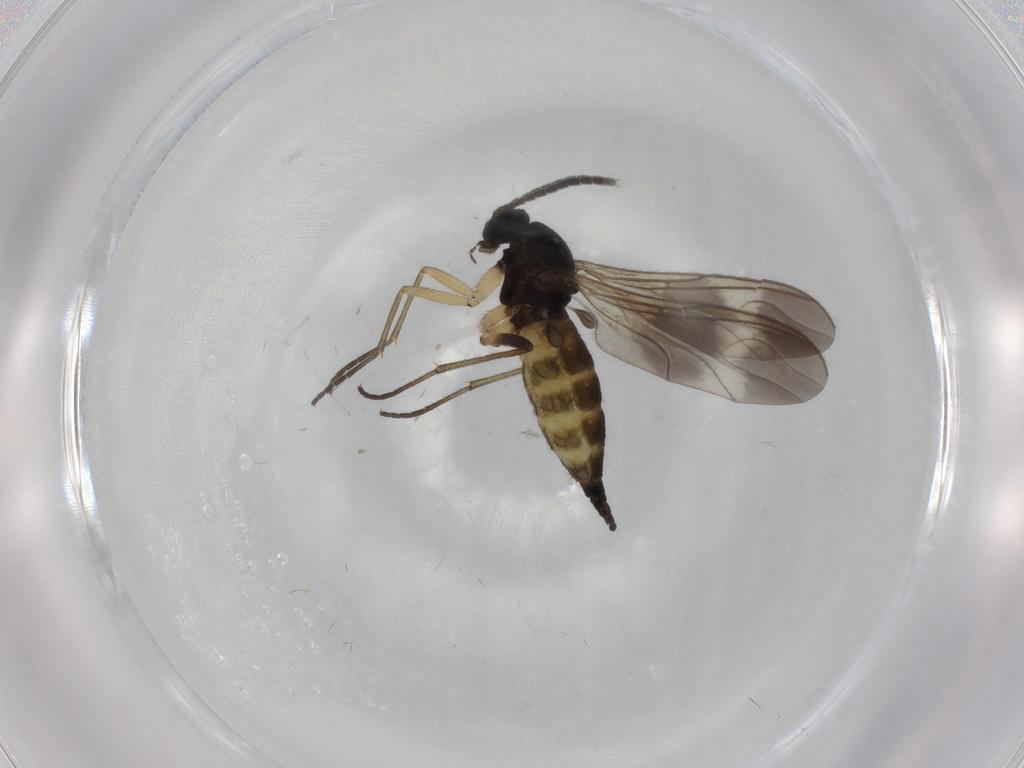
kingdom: Animalia
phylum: Arthropoda
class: Insecta
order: Diptera
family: Sciaridae
